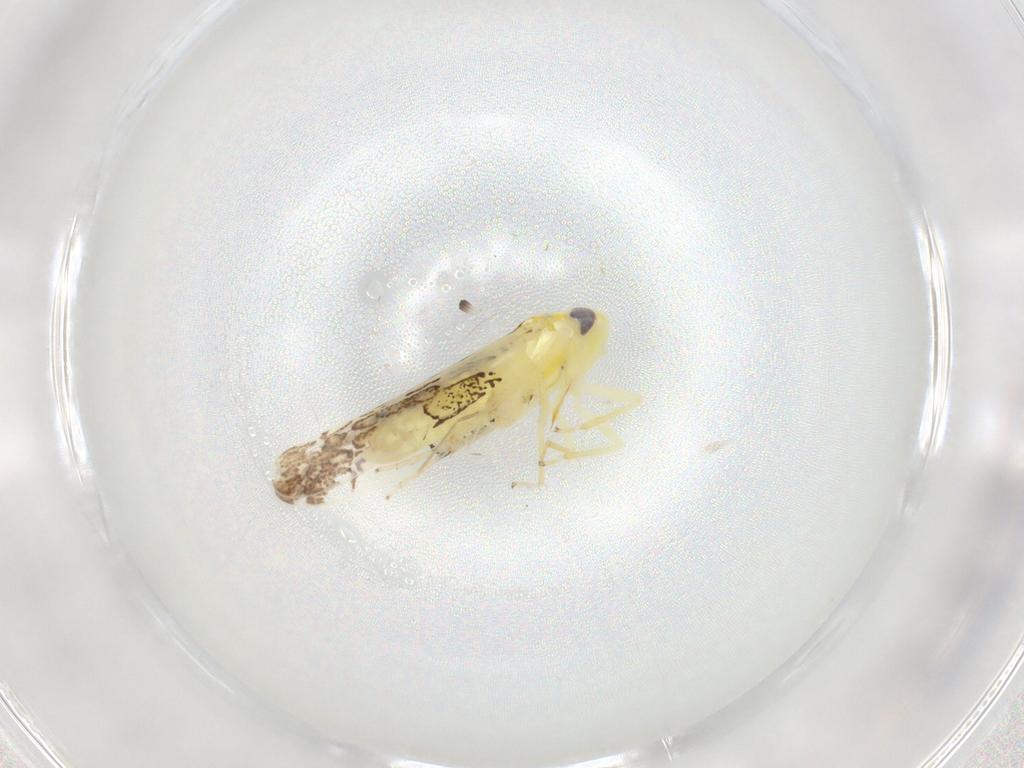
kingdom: Animalia
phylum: Arthropoda
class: Insecta
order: Hemiptera
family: Cicadellidae
